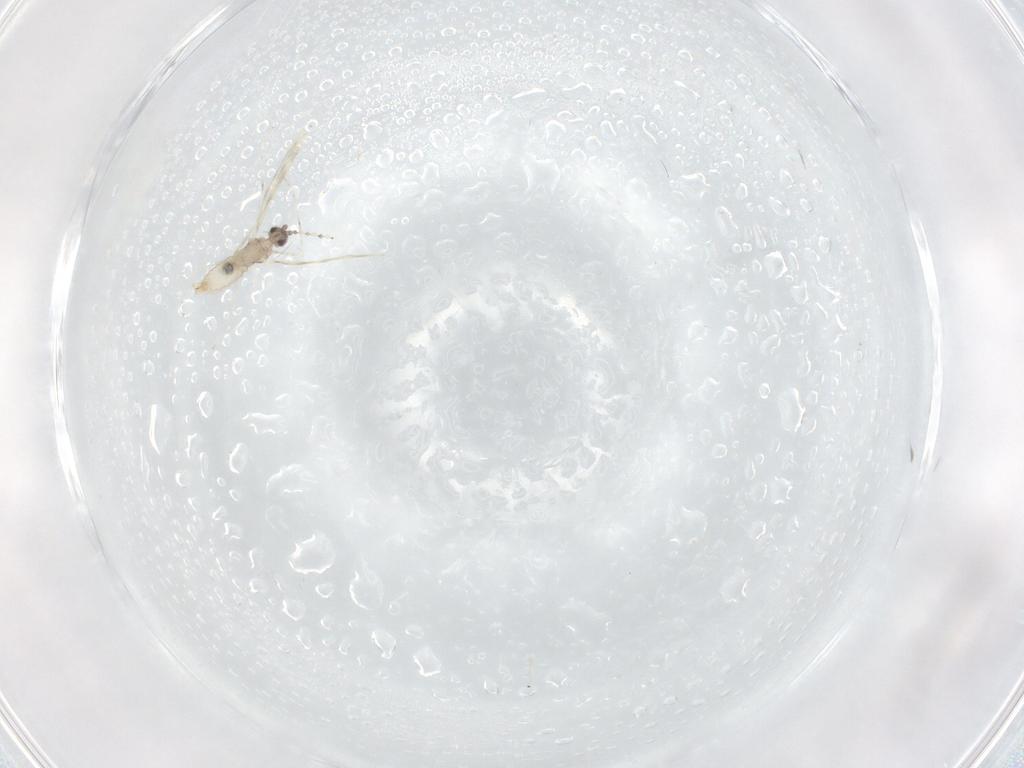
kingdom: Animalia
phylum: Arthropoda
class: Insecta
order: Diptera
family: Cecidomyiidae
